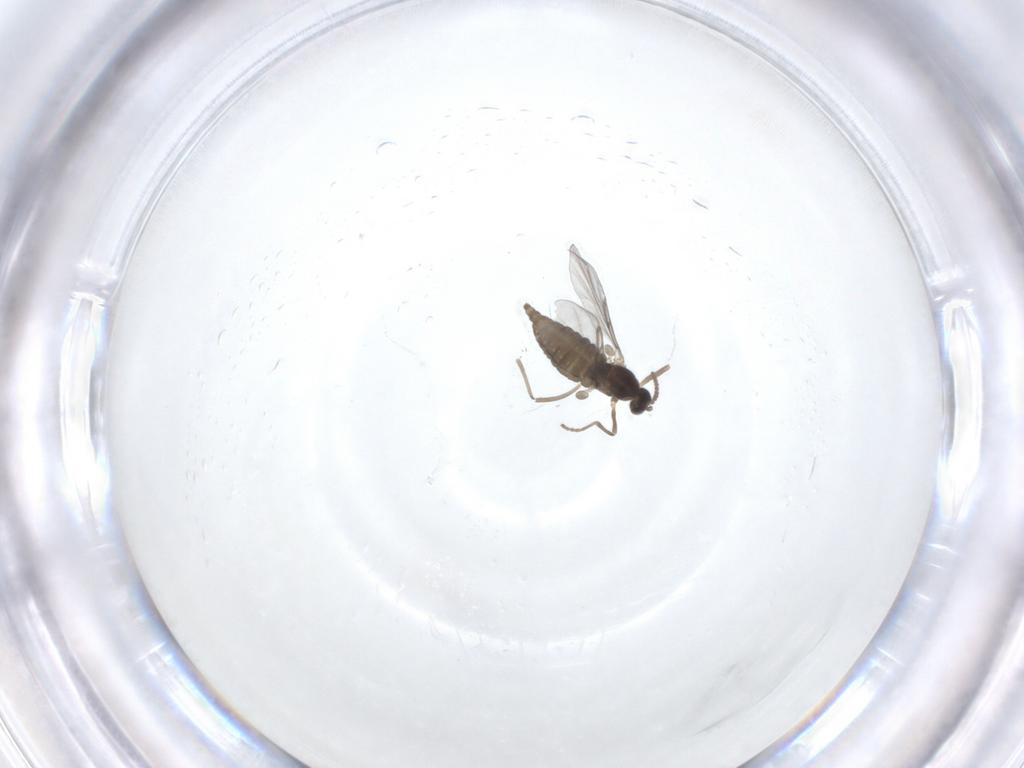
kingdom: Animalia
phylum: Arthropoda
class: Insecta
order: Diptera
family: Cecidomyiidae
